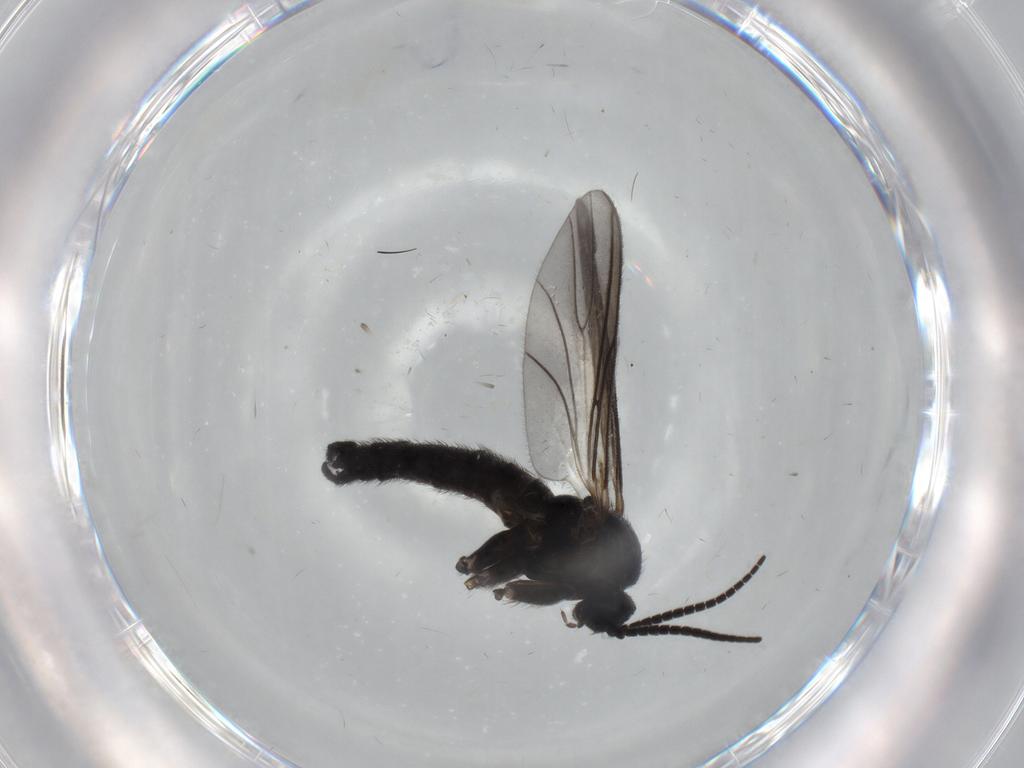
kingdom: Animalia
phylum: Arthropoda
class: Insecta
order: Diptera
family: Sciaridae
